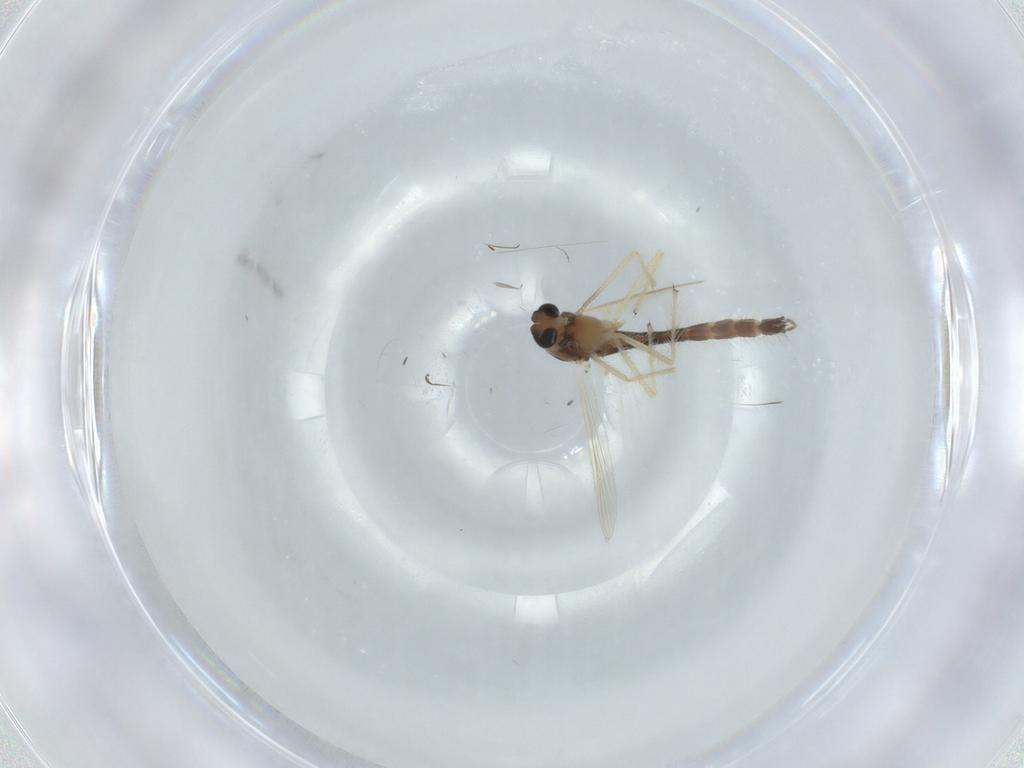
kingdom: Animalia
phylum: Arthropoda
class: Insecta
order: Diptera
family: Chironomidae
